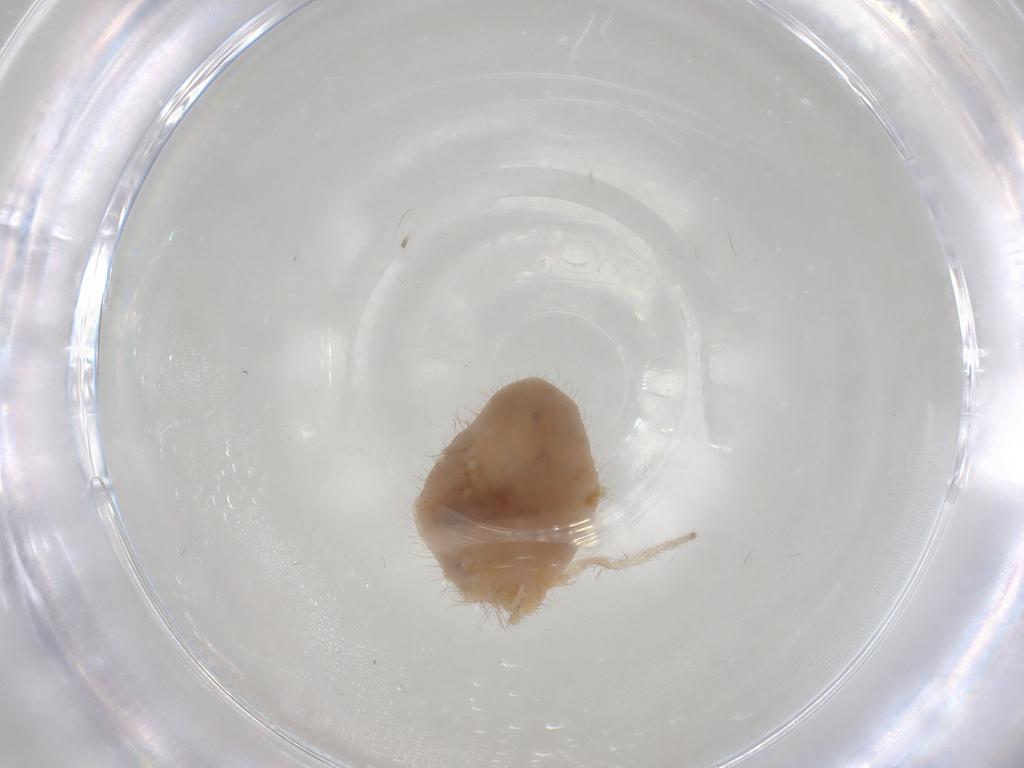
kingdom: Animalia
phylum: Arthropoda
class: Arachnida
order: Trombidiformes
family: Erythraeidae
